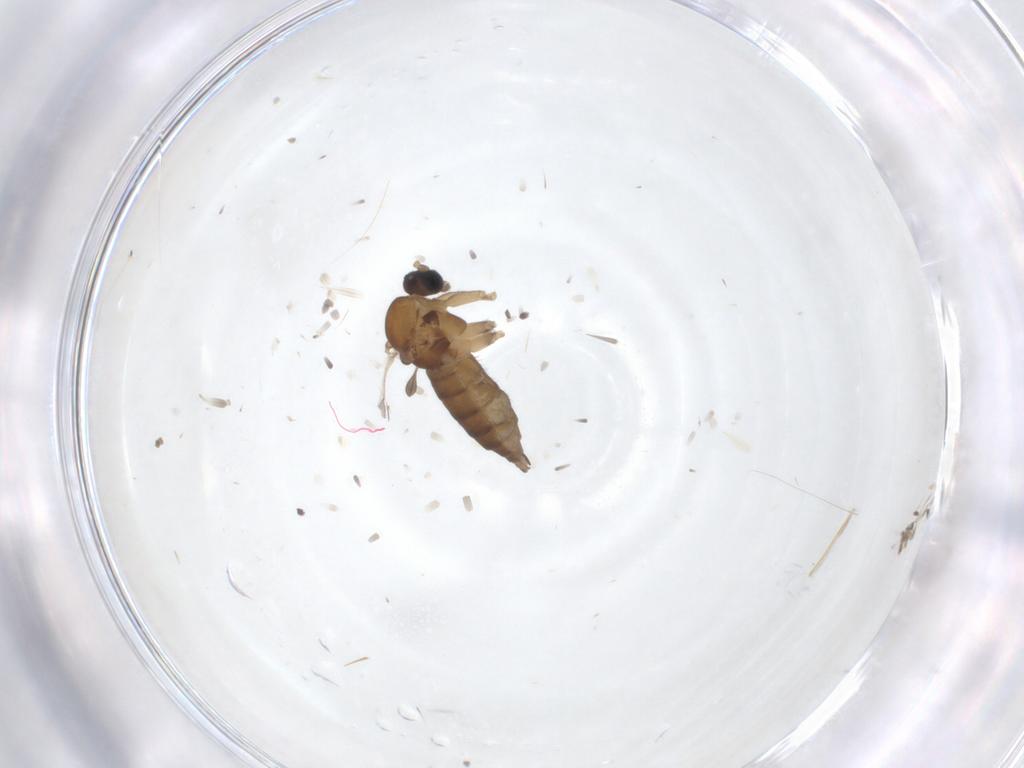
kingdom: Animalia
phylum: Arthropoda
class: Insecta
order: Diptera
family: Sciaridae
